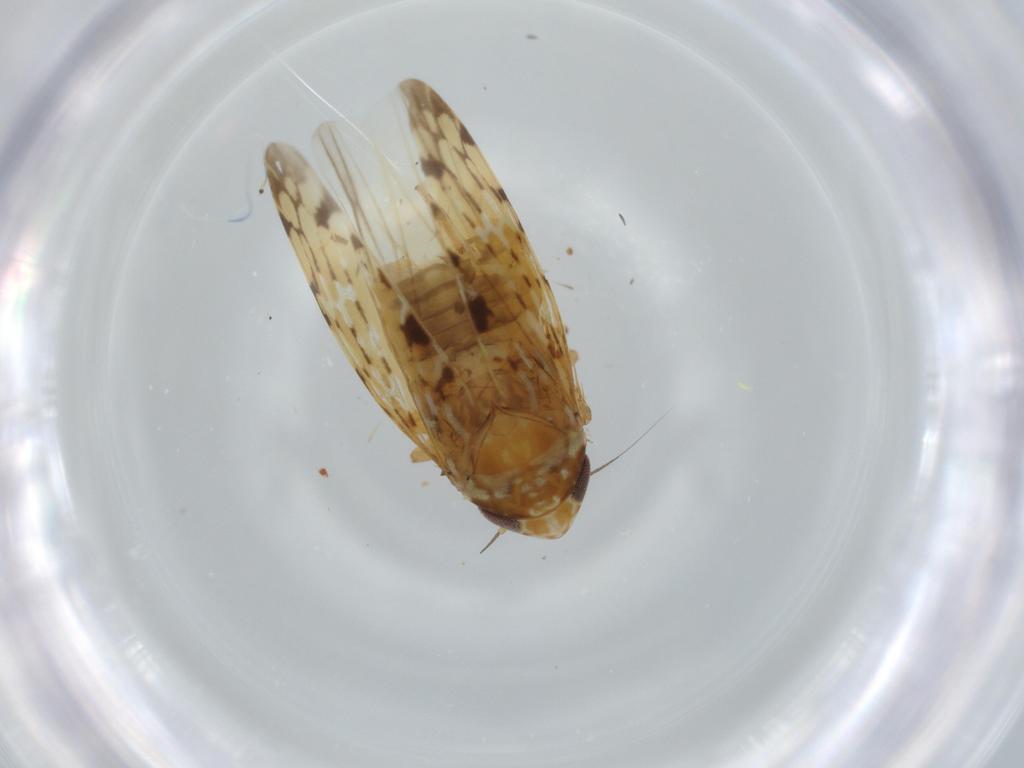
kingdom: Animalia
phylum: Arthropoda
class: Insecta
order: Hemiptera
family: Cicadellidae
